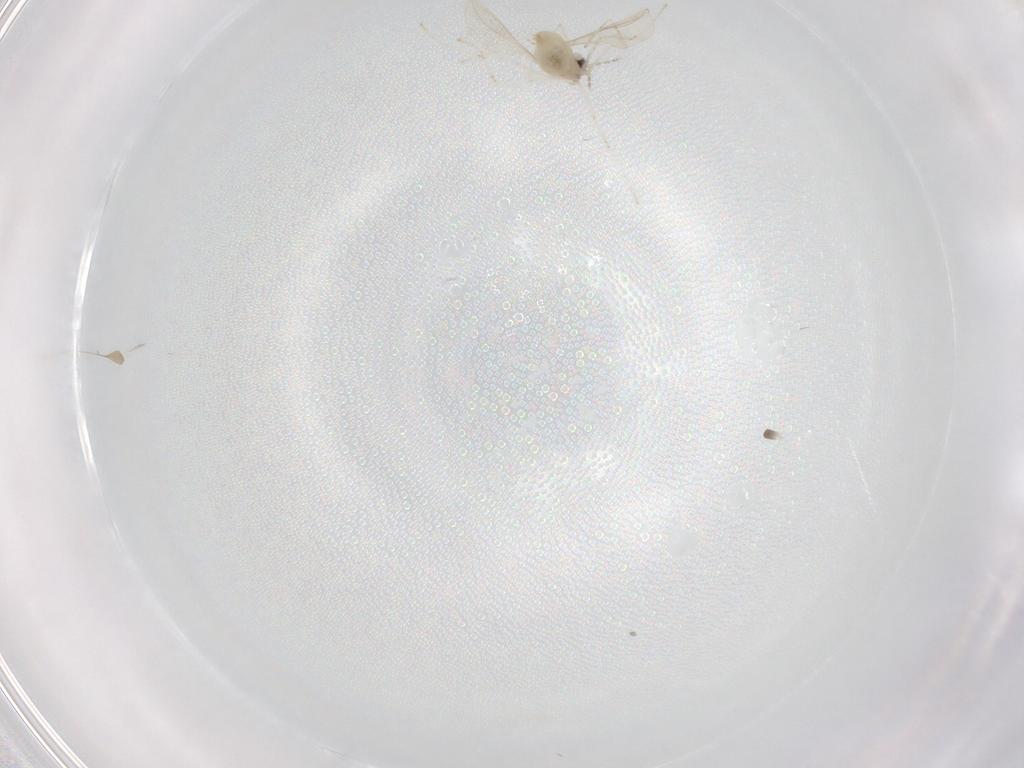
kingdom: Animalia
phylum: Arthropoda
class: Insecta
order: Diptera
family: Cecidomyiidae
